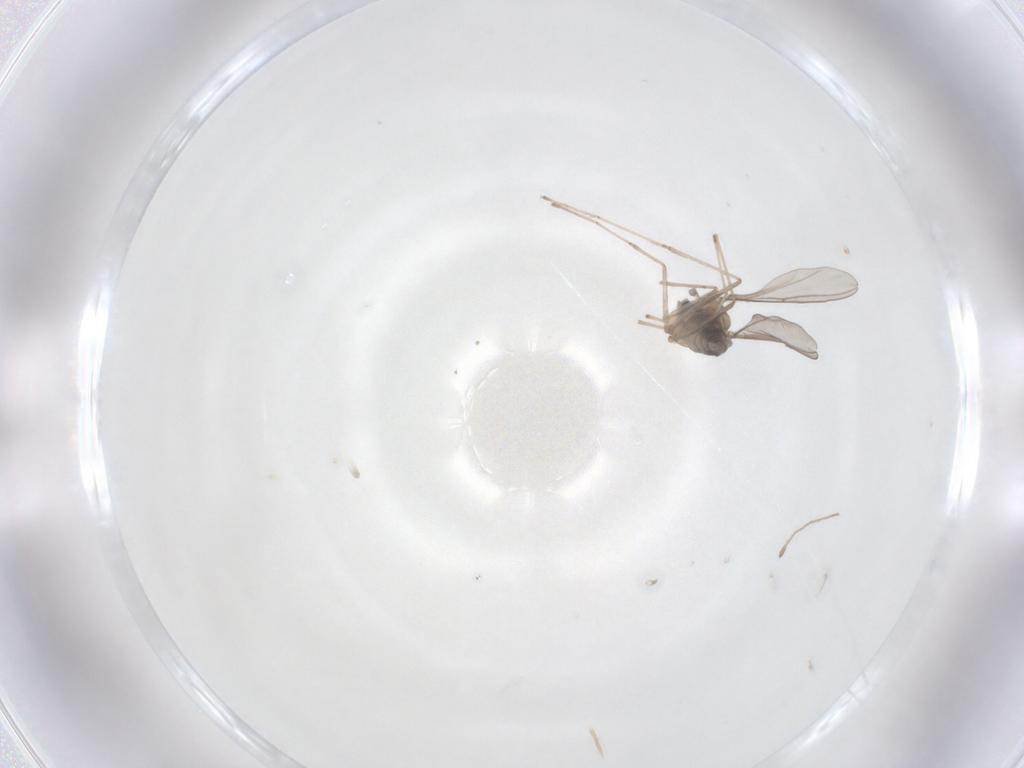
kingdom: Animalia
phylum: Arthropoda
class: Insecta
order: Diptera
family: Cecidomyiidae
